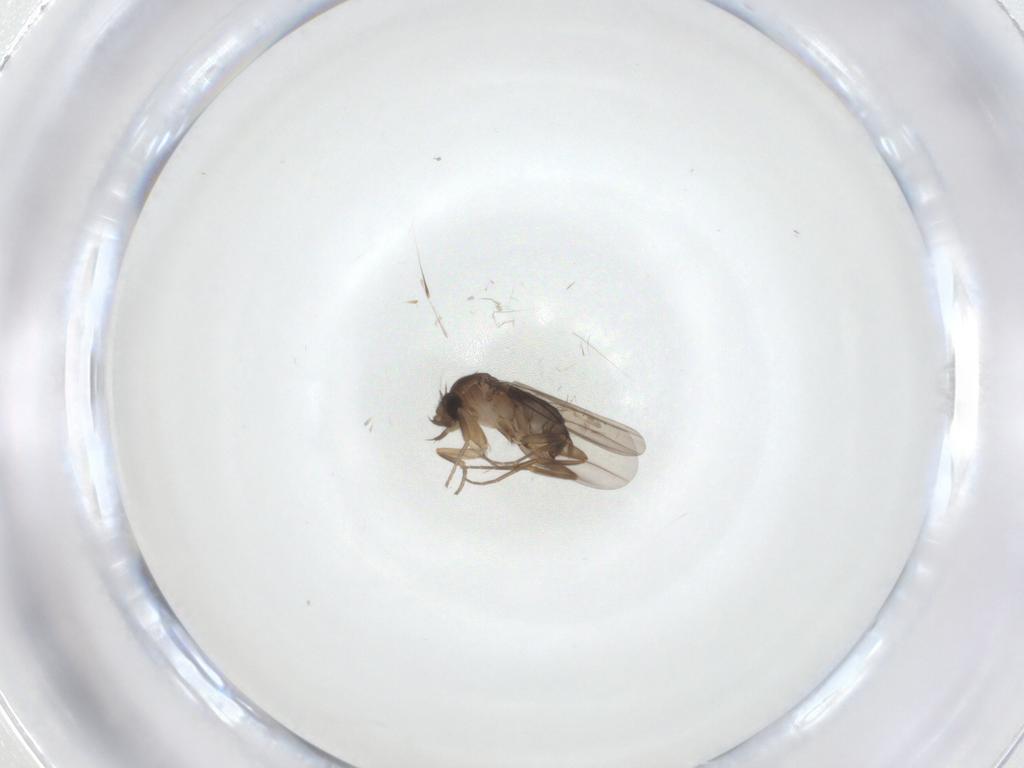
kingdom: Animalia
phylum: Arthropoda
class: Insecta
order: Diptera
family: Phoridae
